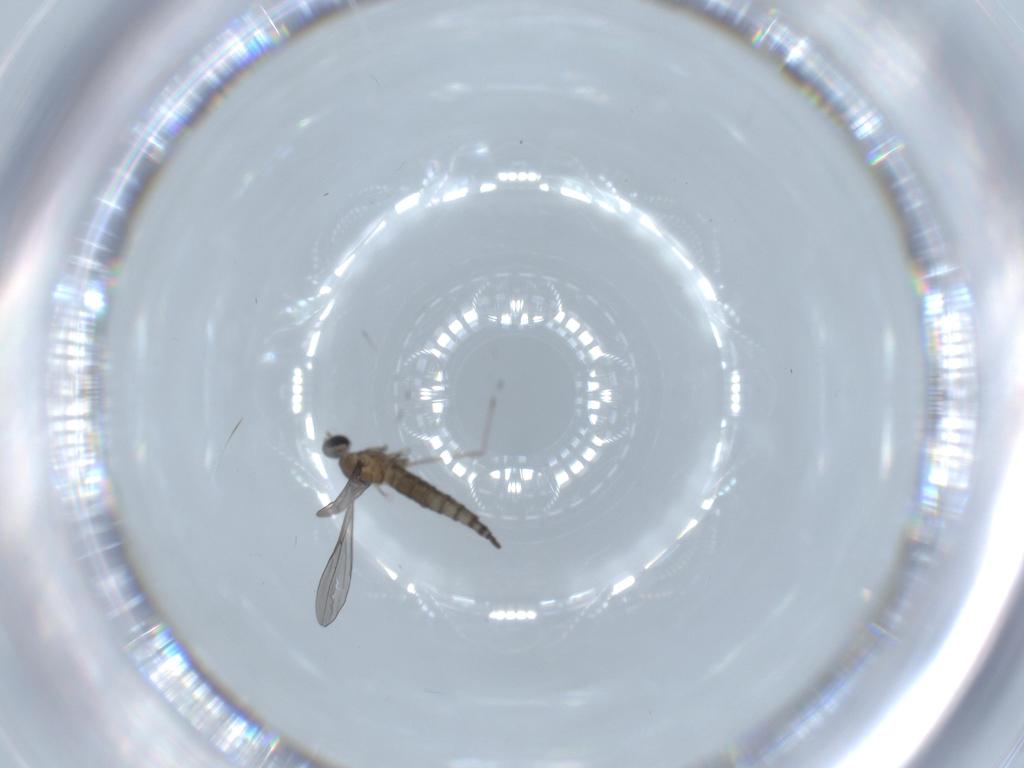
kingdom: Animalia
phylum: Arthropoda
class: Insecta
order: Diptera
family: Cecidomyiidae
